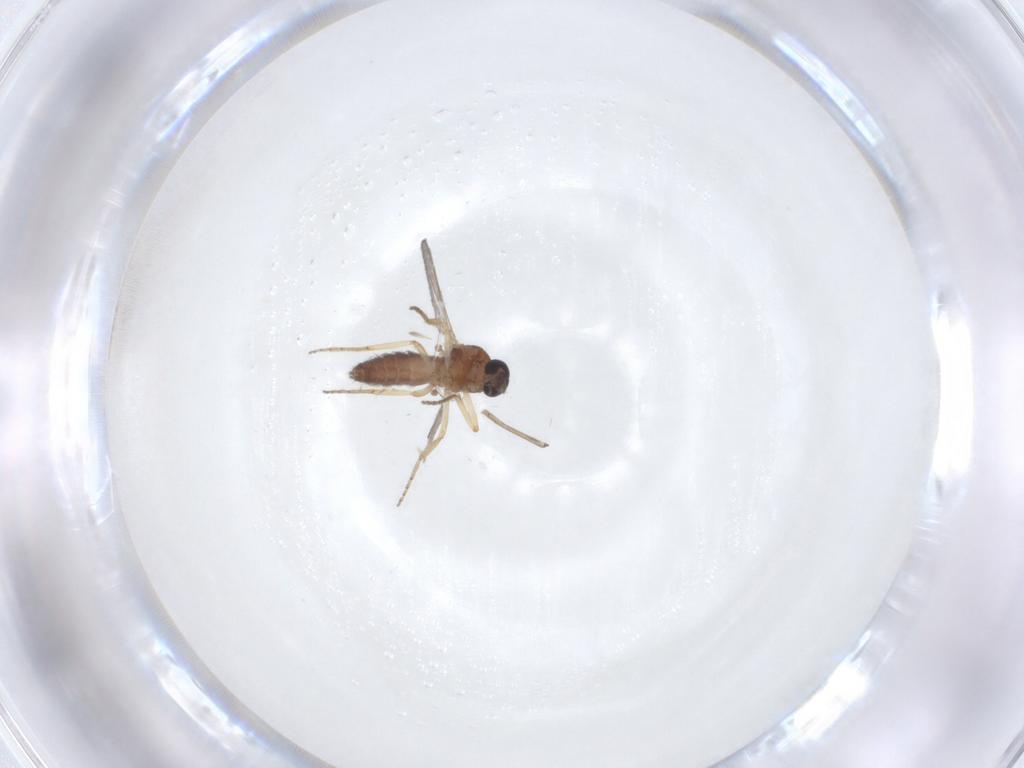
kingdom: Animalia
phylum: Arthropoda
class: Insecta
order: Diptera
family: Ceratopogonidae
